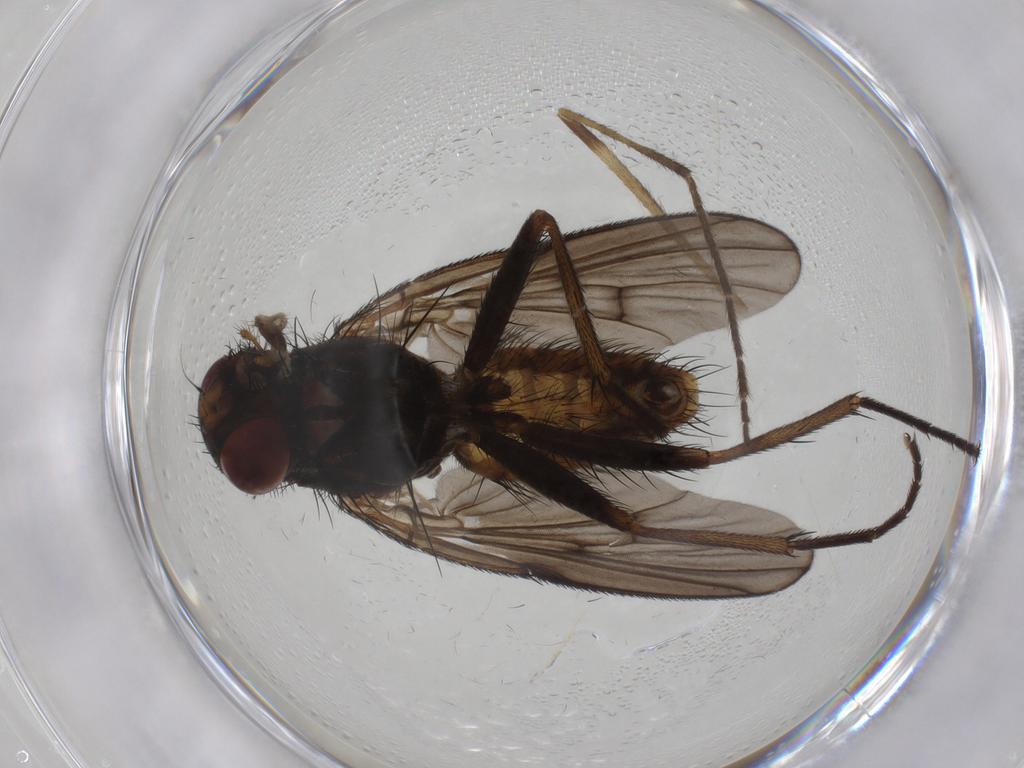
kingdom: Animalia
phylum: Arthropoda
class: Insecta
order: Diptera
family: Muscidae
